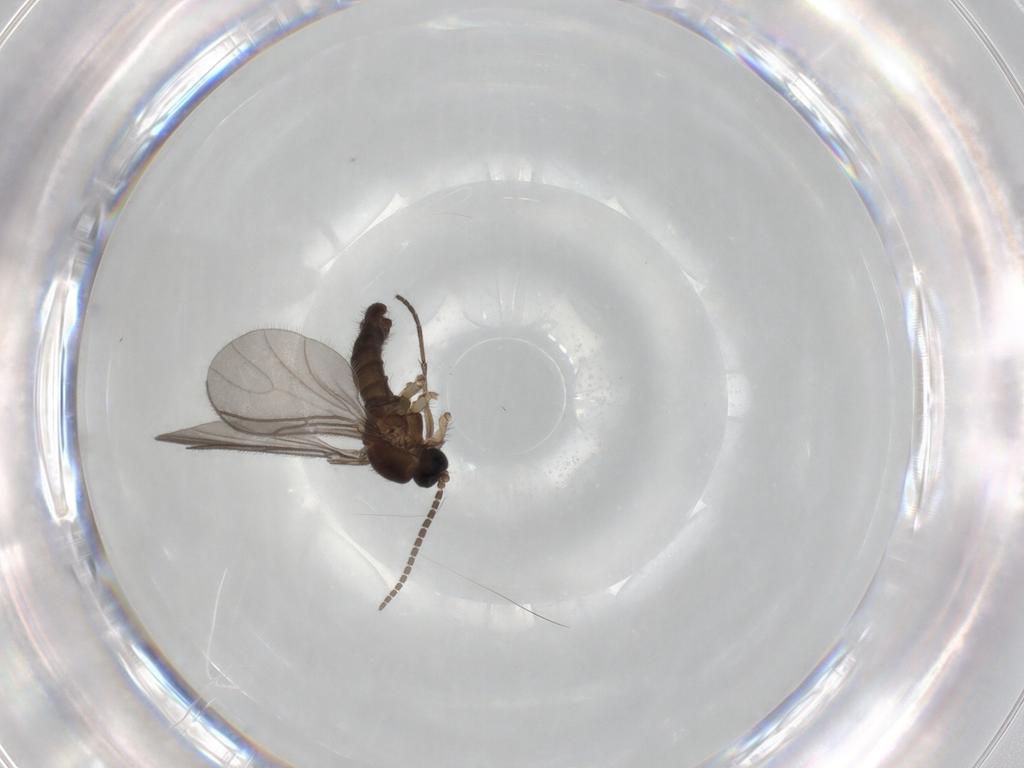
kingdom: Animalia
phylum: Arthropoda
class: Insecta
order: Diptera
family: Sciaridae
